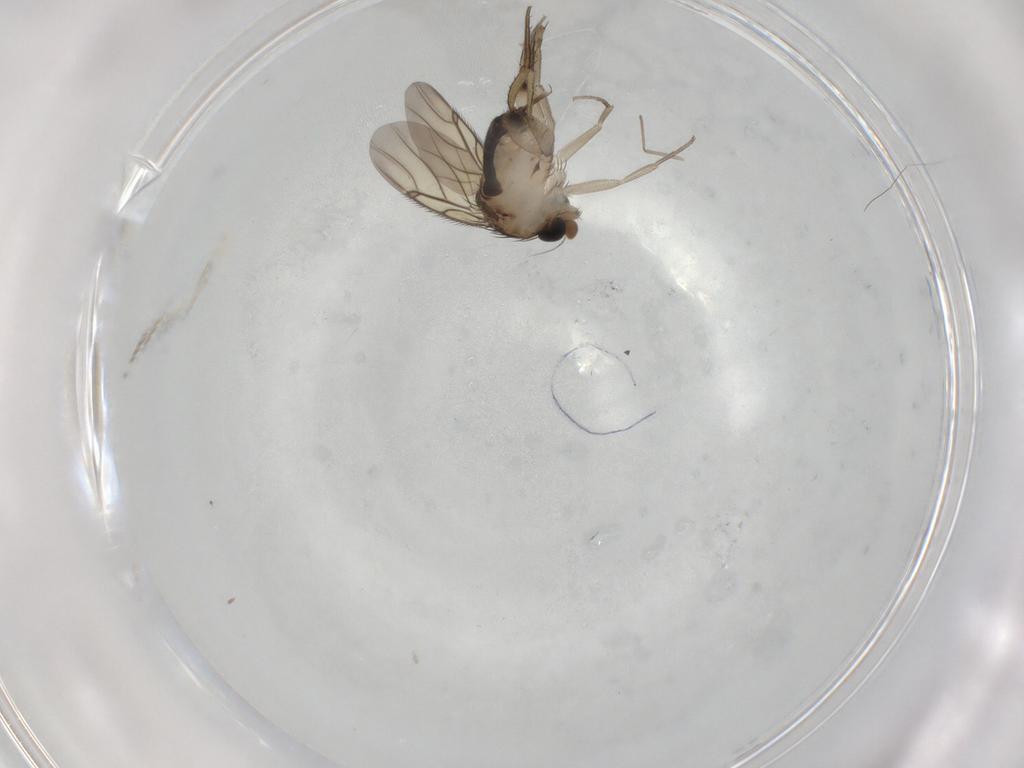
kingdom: Animalia
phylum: Arthropoda
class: Insecta
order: Diptera
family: Phoridae
